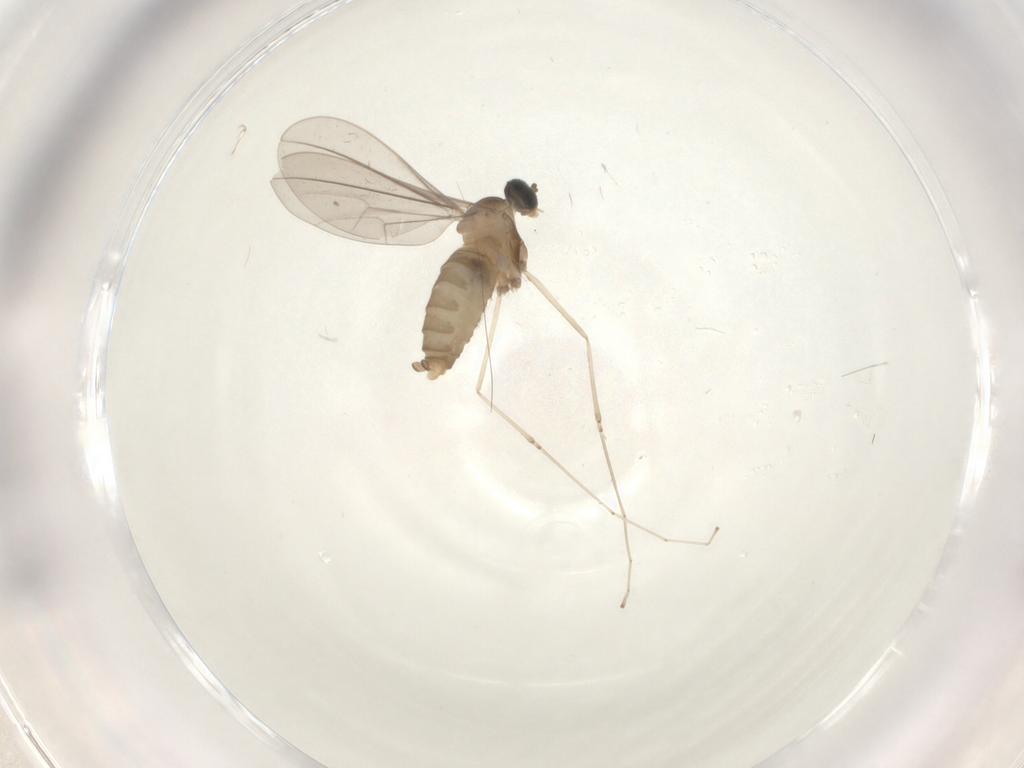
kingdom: Animalia
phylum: Arthropoda
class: Insecta
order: Diptera
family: Cecidomyiidae
